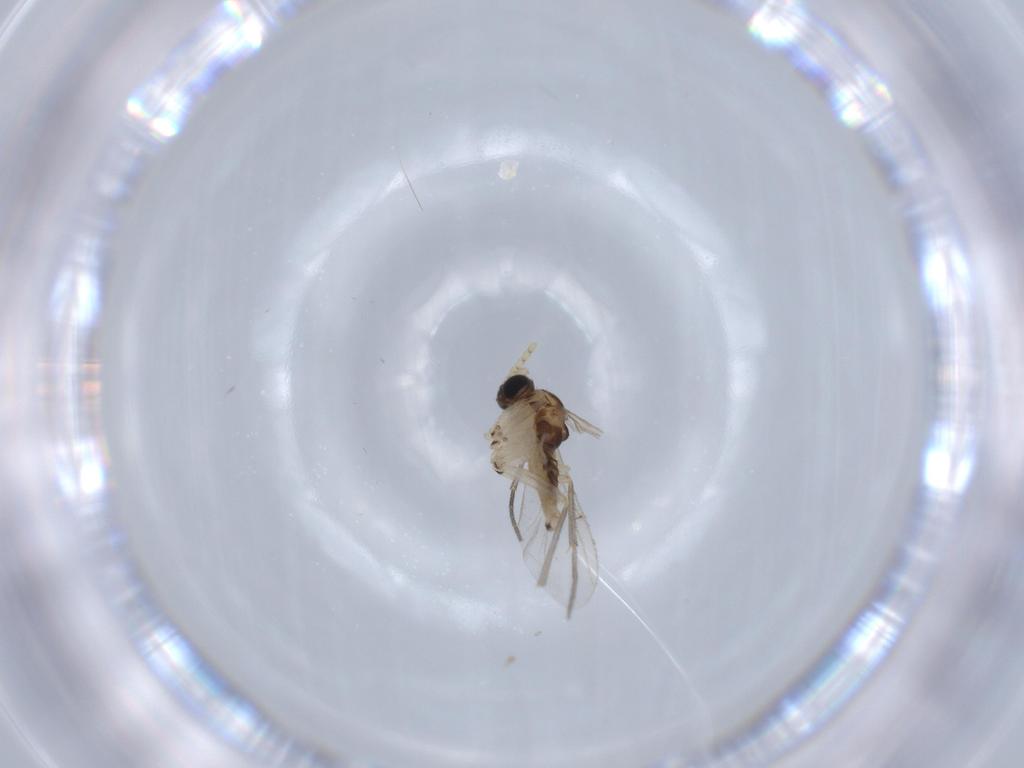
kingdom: Animalia
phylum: Arthropoda
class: Insecta
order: Diptera
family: Sciaridae
